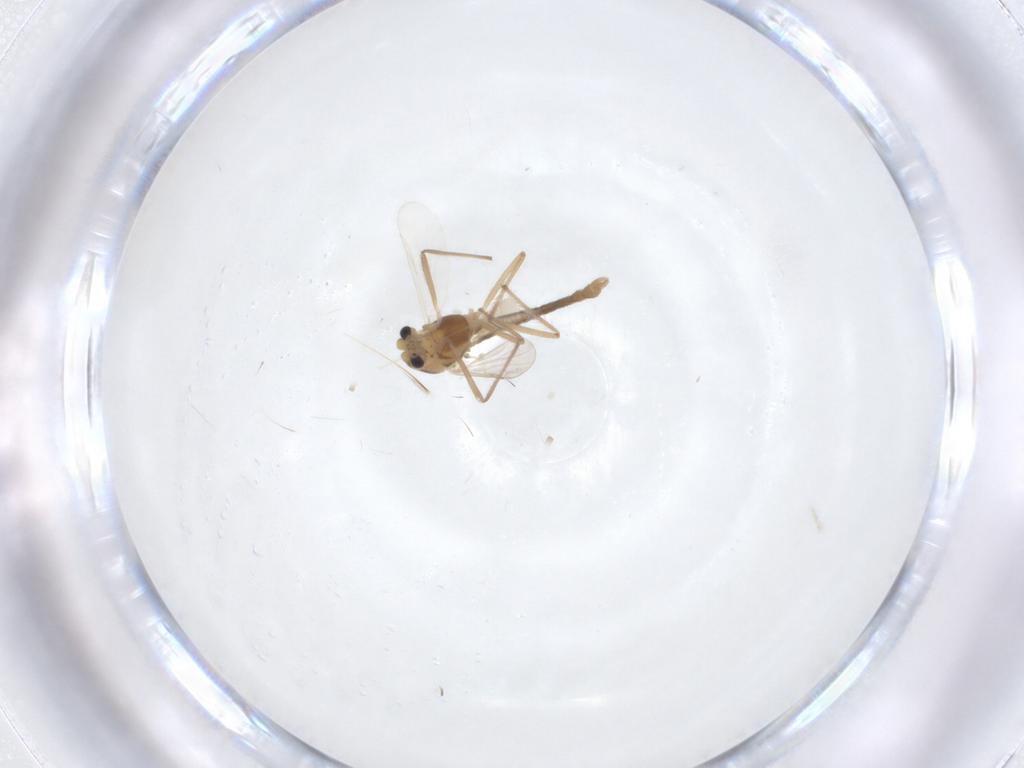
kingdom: Animalia
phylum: Arthropoda
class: Insecta
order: Diptera
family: Chironomidae
